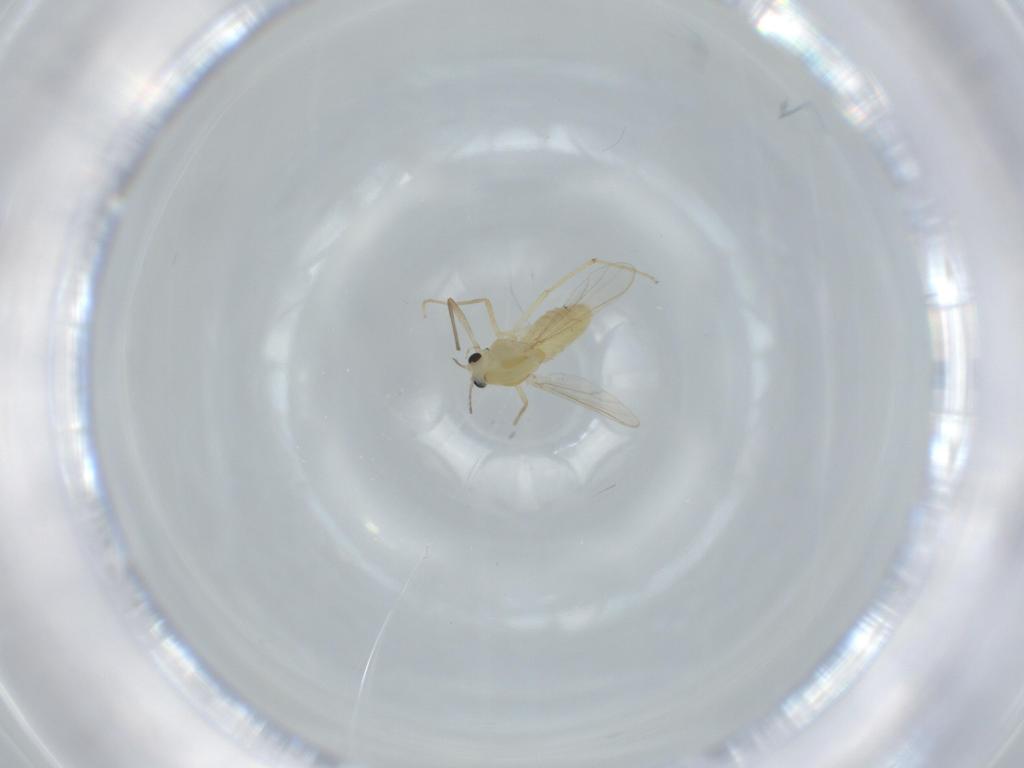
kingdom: Animalia
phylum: Arthropoda
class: Insecta
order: Diptera
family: Chironomidae
